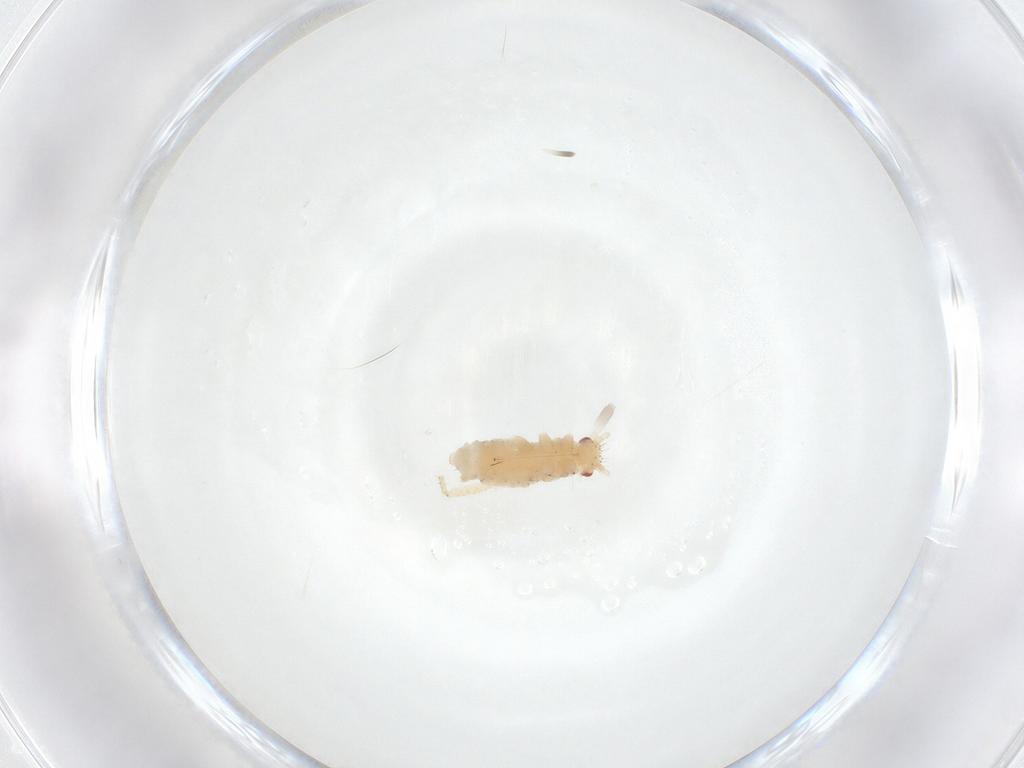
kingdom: Animalia
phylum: Arthropoda
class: Insecta
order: Hemiptera
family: Aphididae
